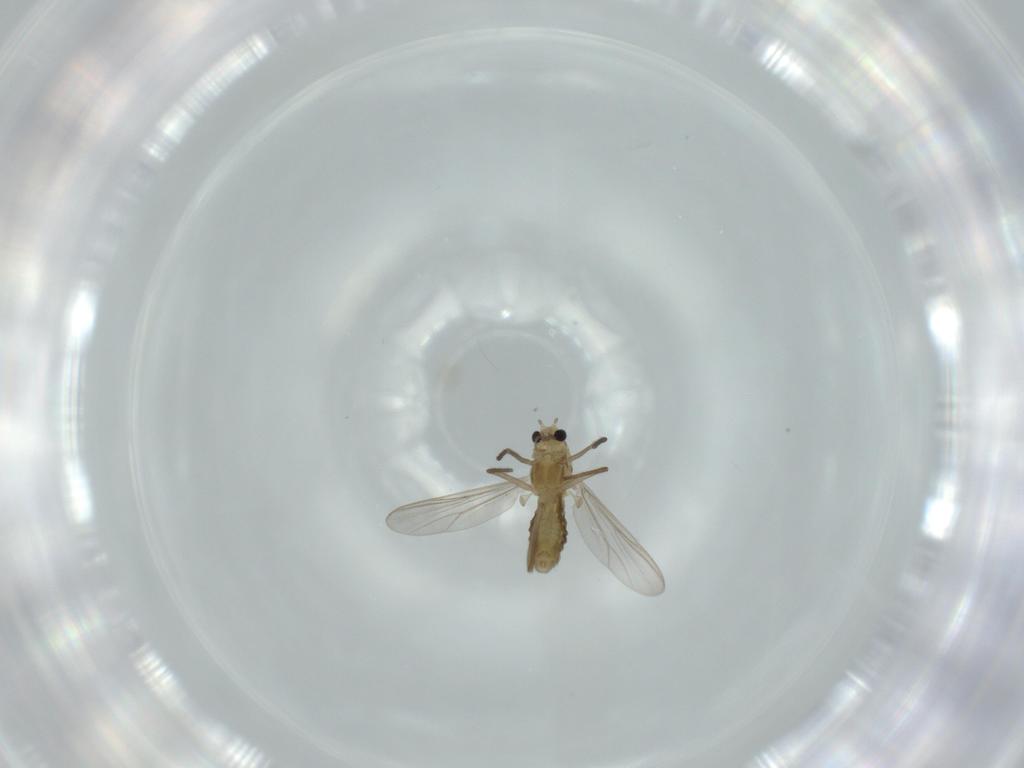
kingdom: Animalia
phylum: Arthropoda
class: Insecta
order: Diptera
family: Chironomidae
